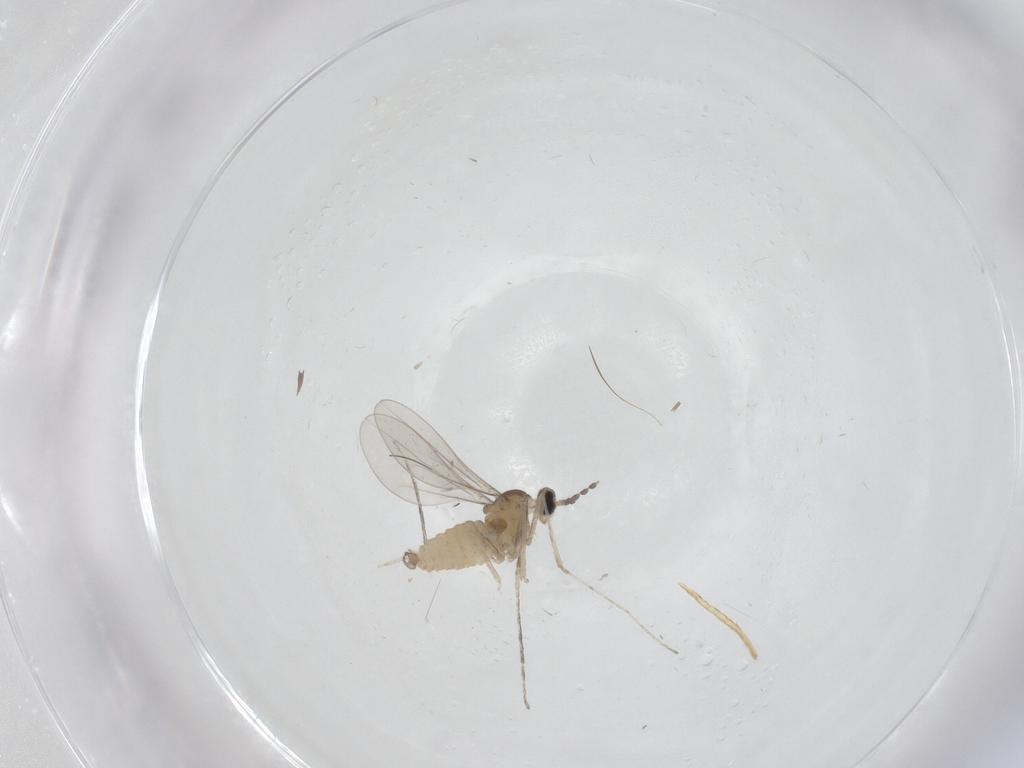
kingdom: Animalia
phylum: Arthropoda
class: Insecta
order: Diptera
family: Cecidomyiidae
